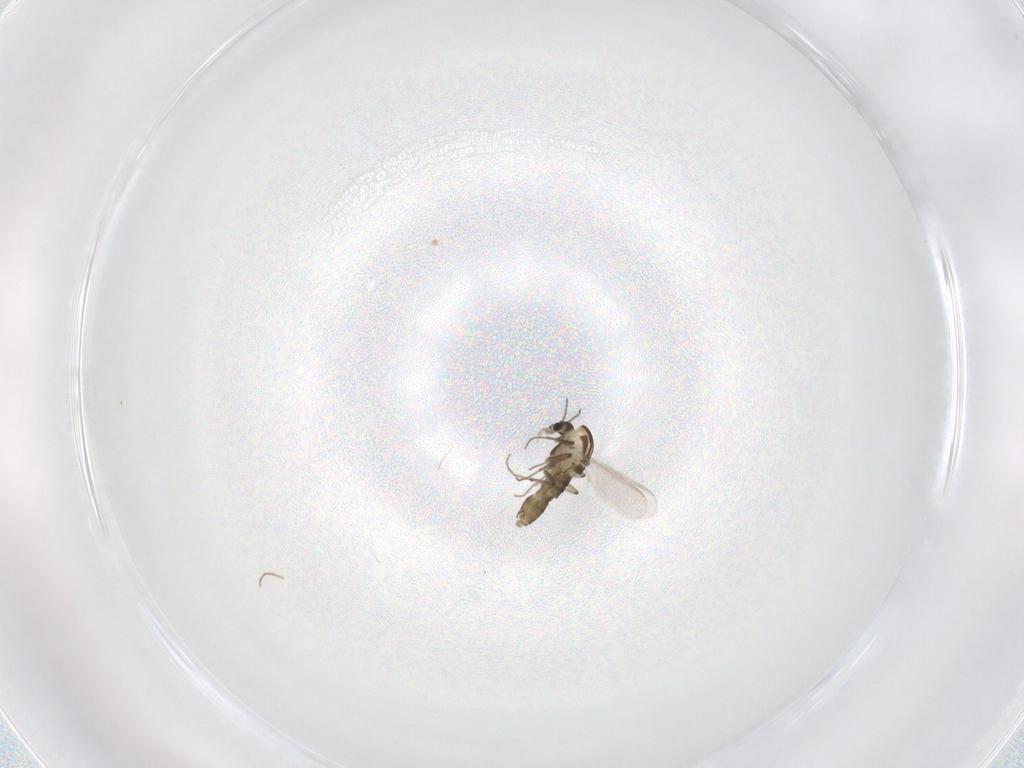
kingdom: Animalia
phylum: Arthropoda
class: Insecta
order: Diptera
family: Chironomidae
